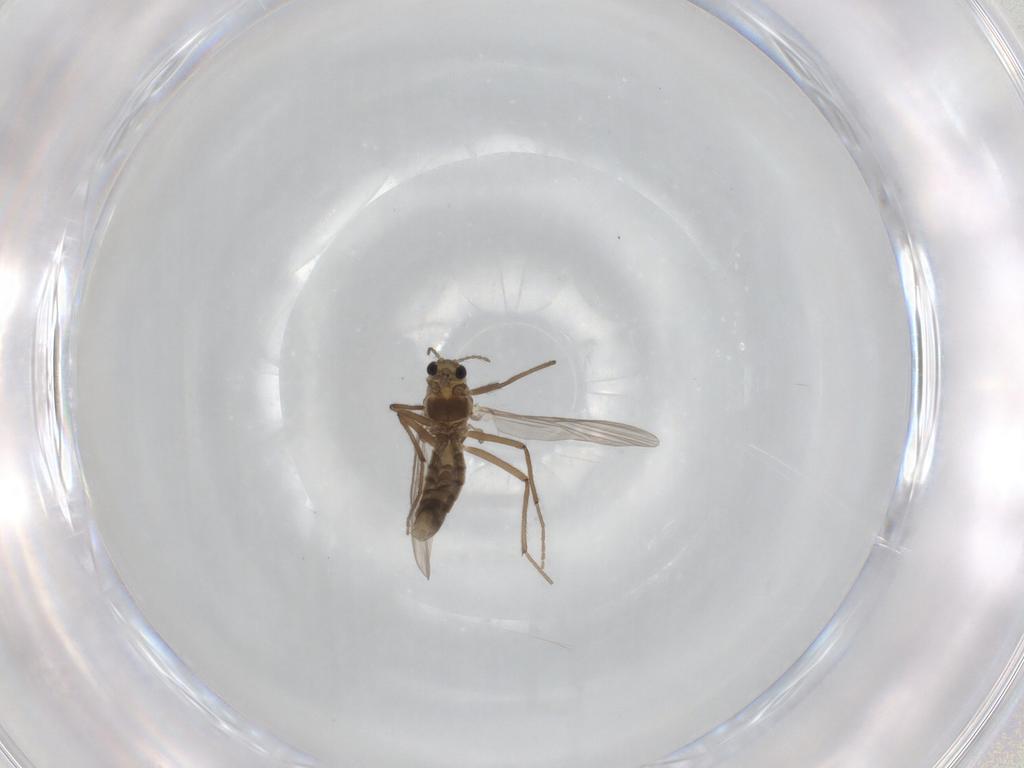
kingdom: Animalia
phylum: Arthropoda
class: Insecta
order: Diptera
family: Chironomidae
